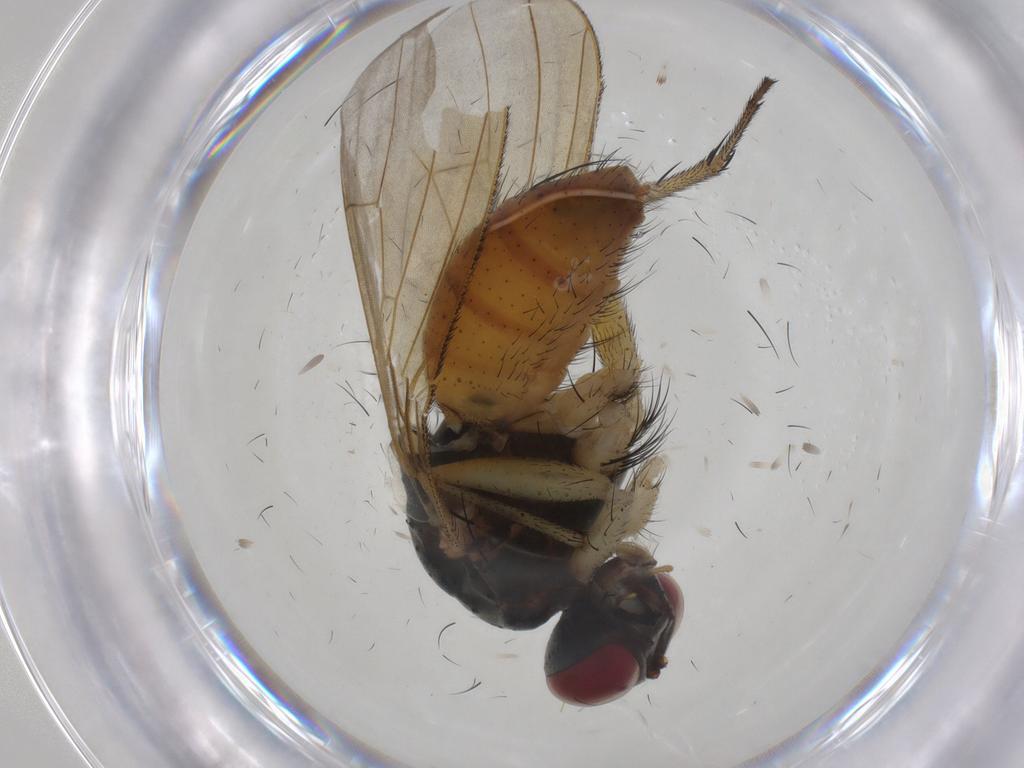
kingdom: Animalia
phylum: Arthropoda
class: Insecta
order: Diptera
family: Muscidae
